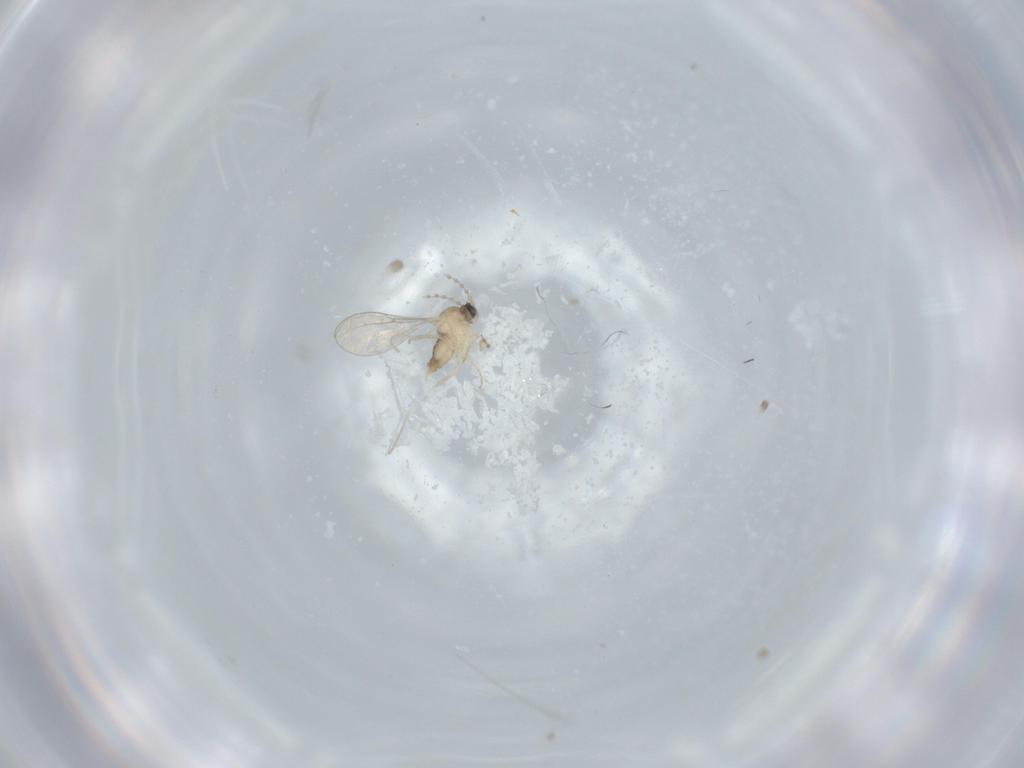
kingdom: Animalia
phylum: Arthropoda
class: Insecta
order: Diptera
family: Cecidomyiidae
